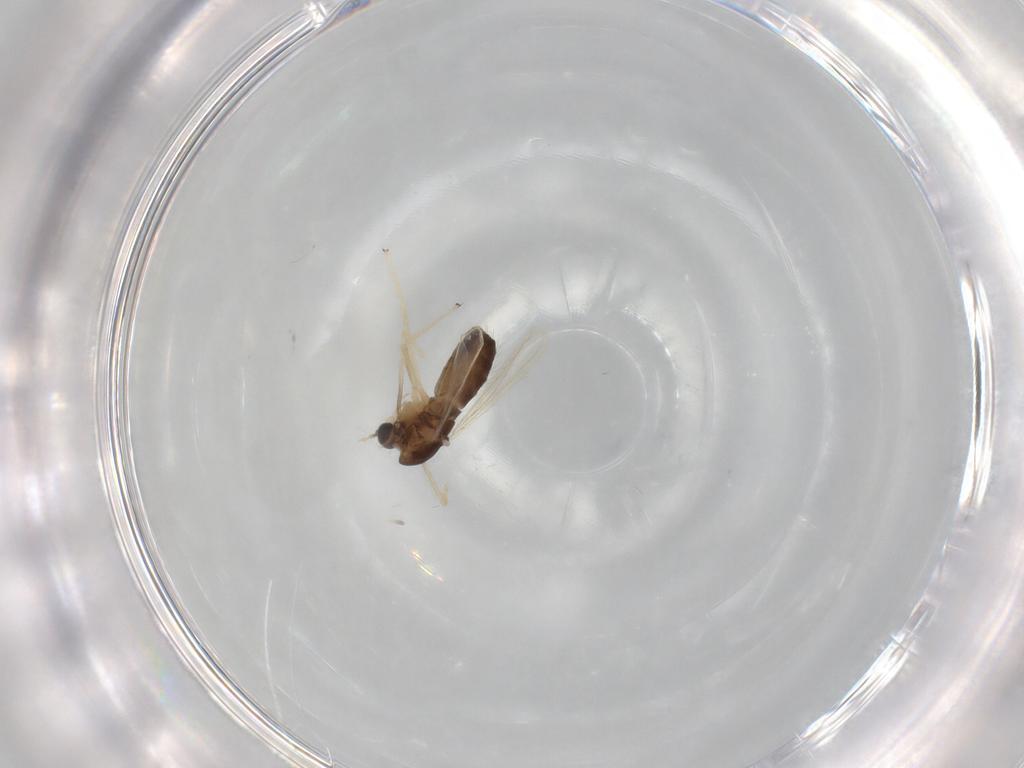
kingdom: Animalia
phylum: Arthropoda
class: Insecta
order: Diptera
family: Chironomidae
